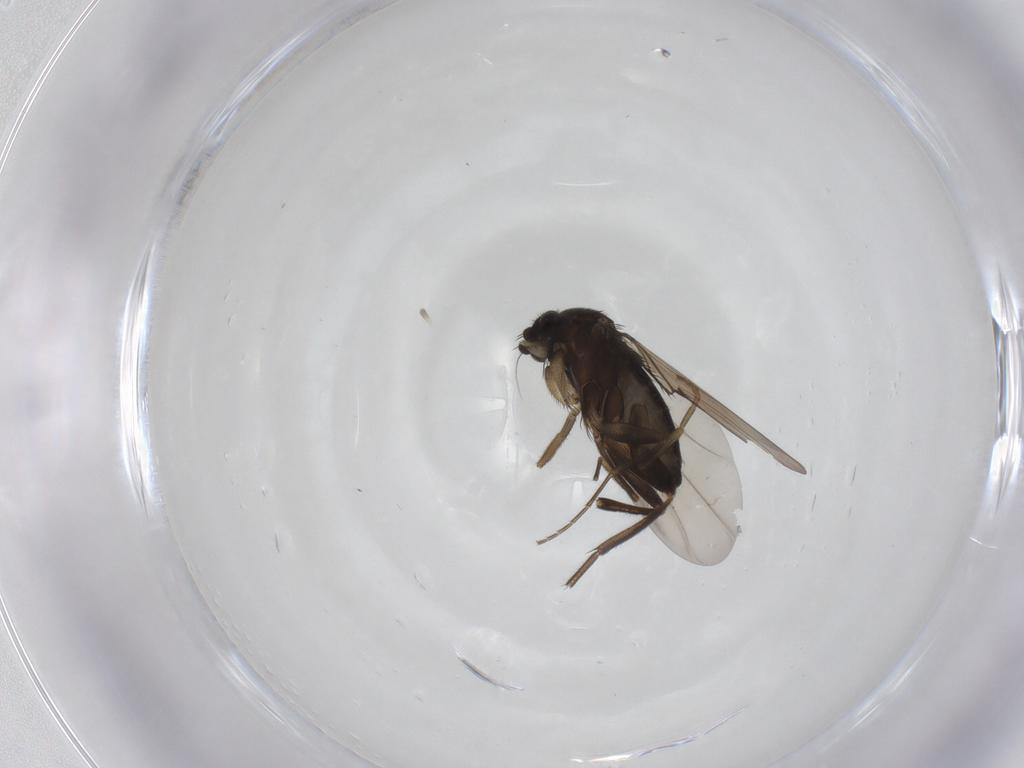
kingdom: Animalia
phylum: Arthropoda
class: Insecta
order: Diptera
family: Phoridae
